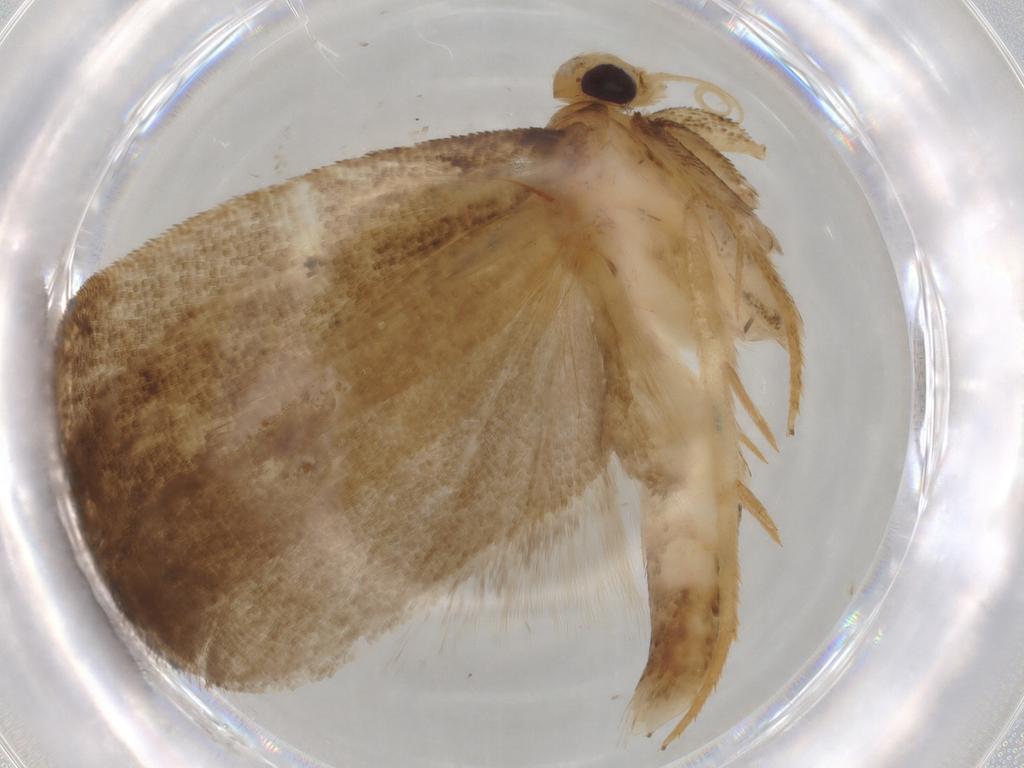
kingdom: Animalia
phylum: Arthropoda
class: Insecta
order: Lepidoptera
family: Depressariidae
